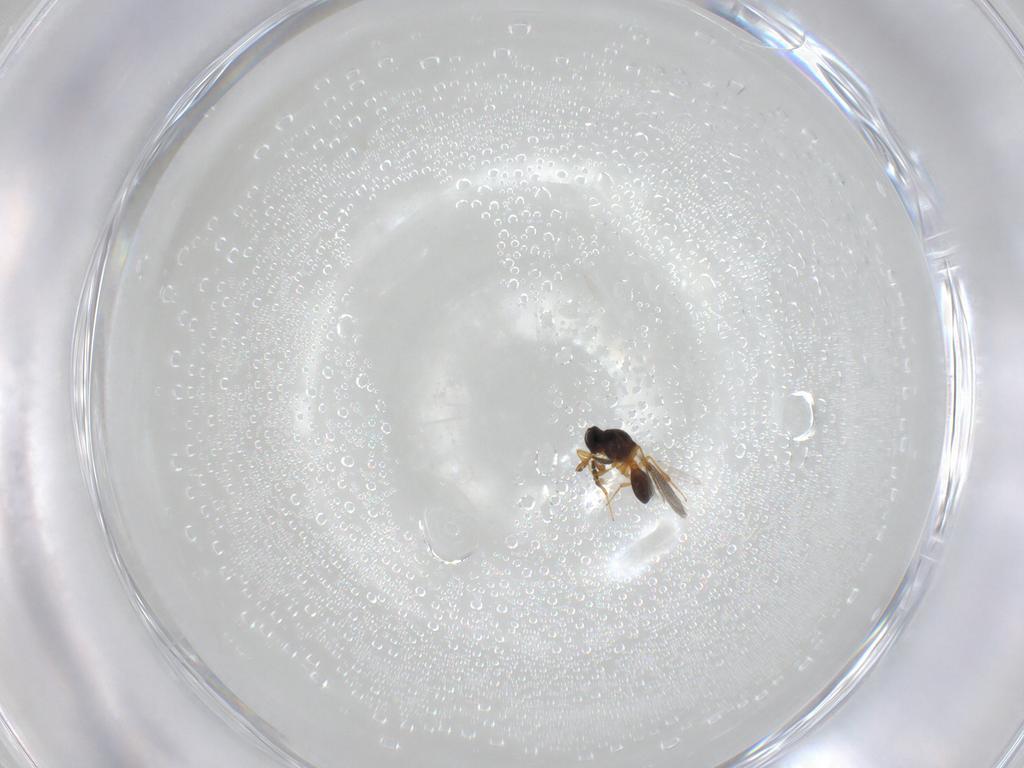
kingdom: Animalia
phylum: Arthropoda
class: Insecta
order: Hymenoptera
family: Platygastridae
